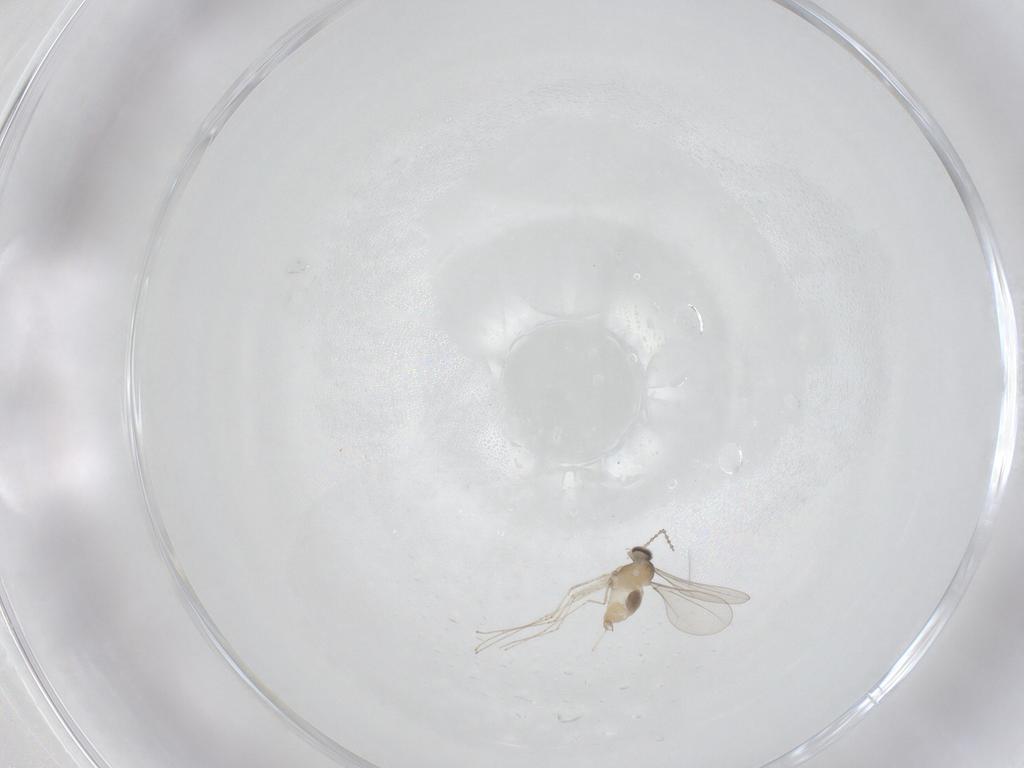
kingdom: Animalia
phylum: Arthropoda
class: Insecta
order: Diptera
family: Cecidomyiidae
